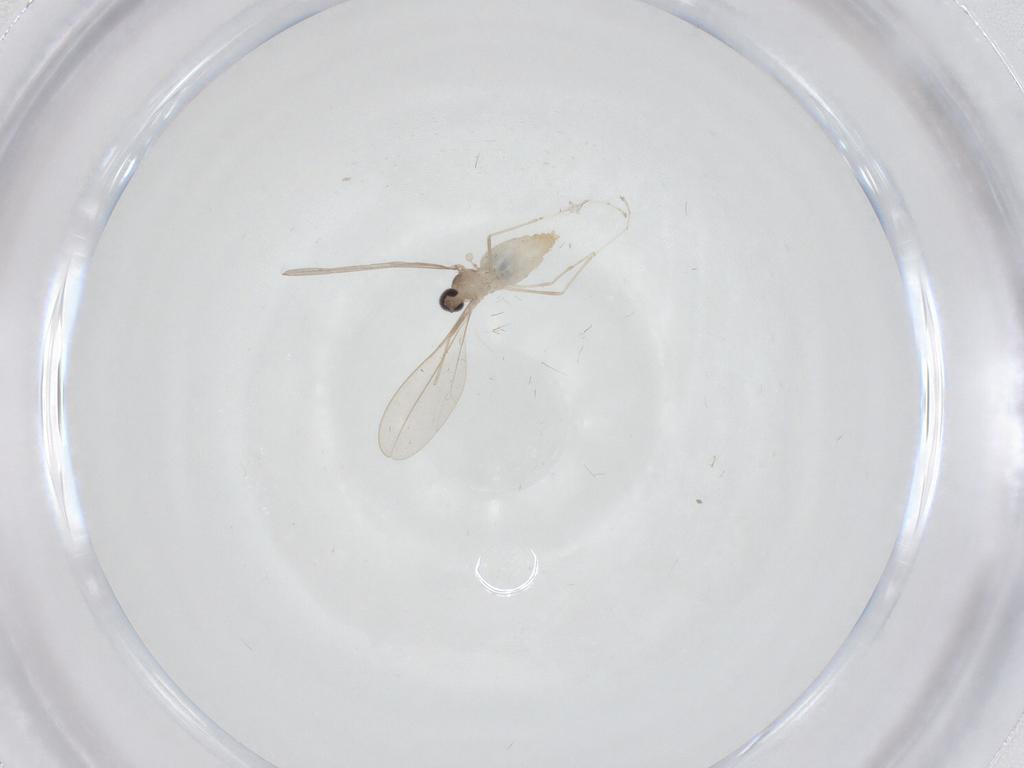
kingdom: Animalia
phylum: Arthropoda
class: Insecta
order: Diptera
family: Cecidomyiidae
